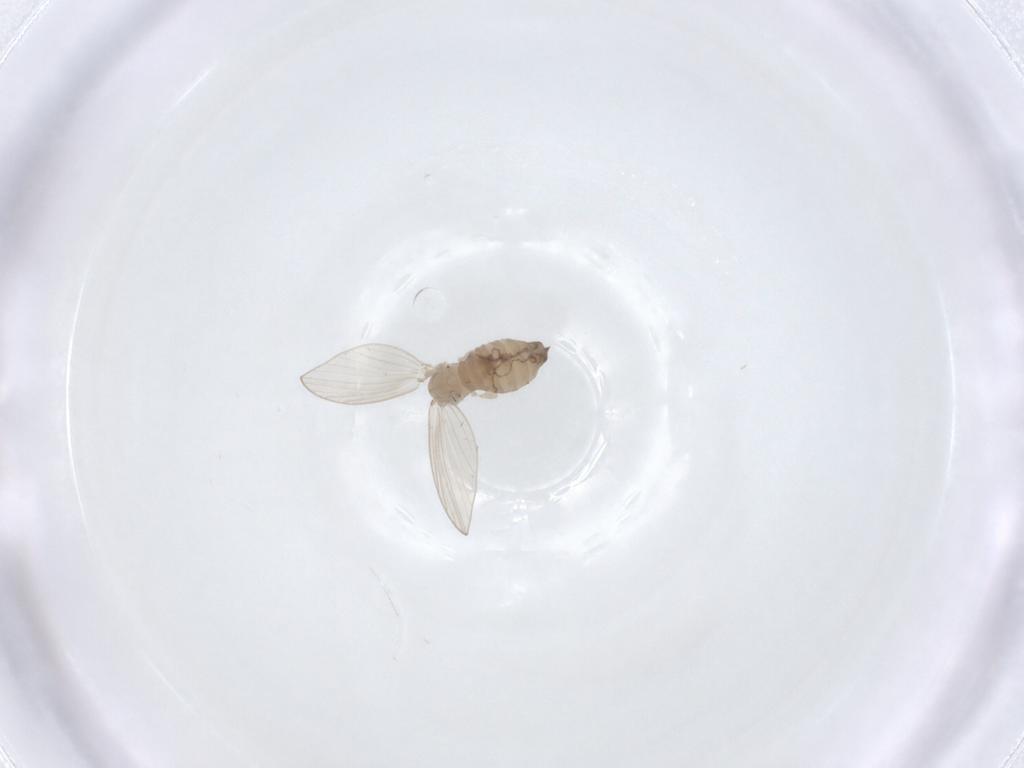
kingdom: Animalia
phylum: Arthropoda
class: Insecta
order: Diptera
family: Psychodidae
